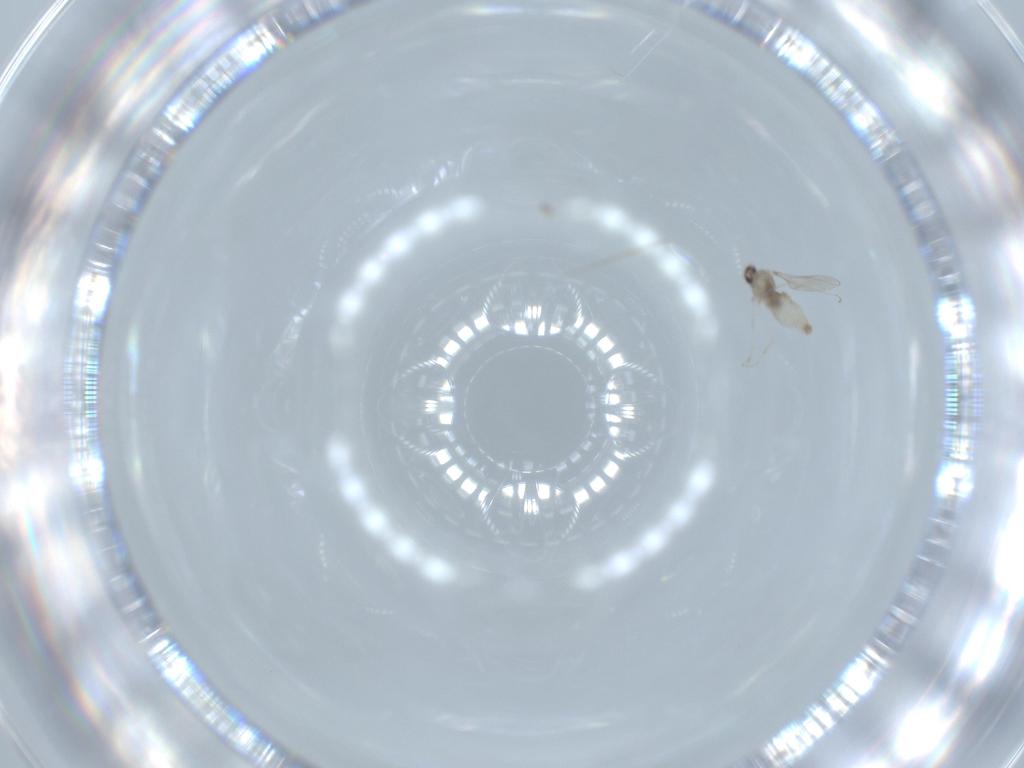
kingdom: Animalia
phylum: Arthropoda
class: Insecta
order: Diptera
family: Cecidomyiidae
